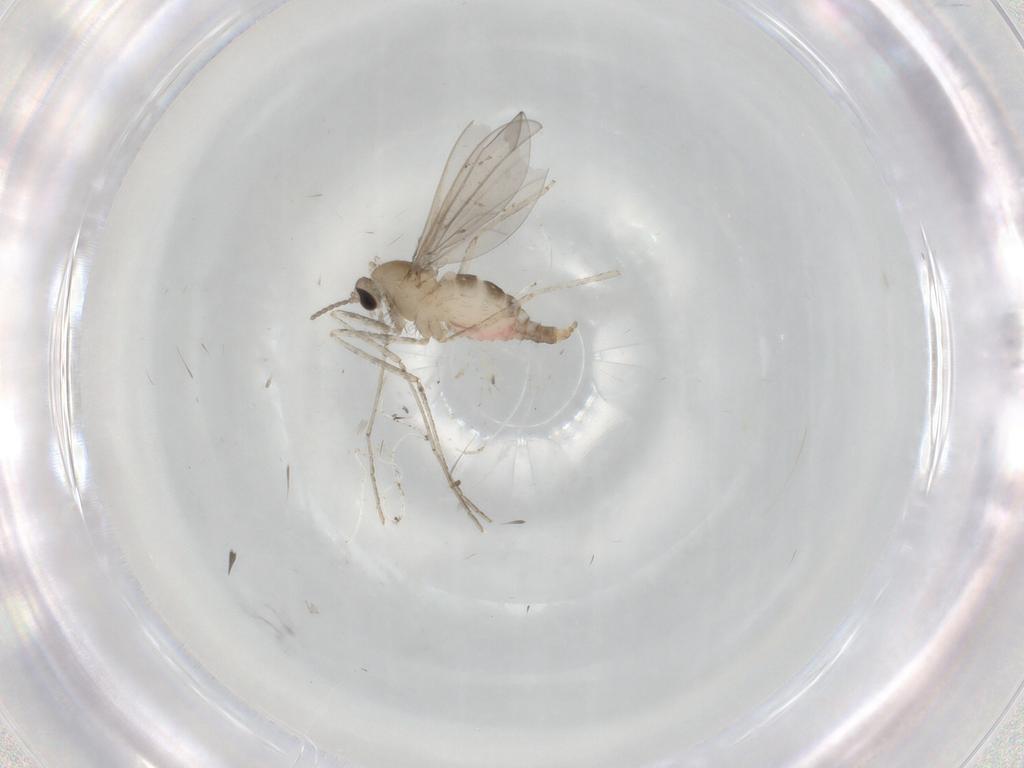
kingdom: Animalia
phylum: Arthropoda
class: Insecta
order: Diptera
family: Cecidomyiidae
